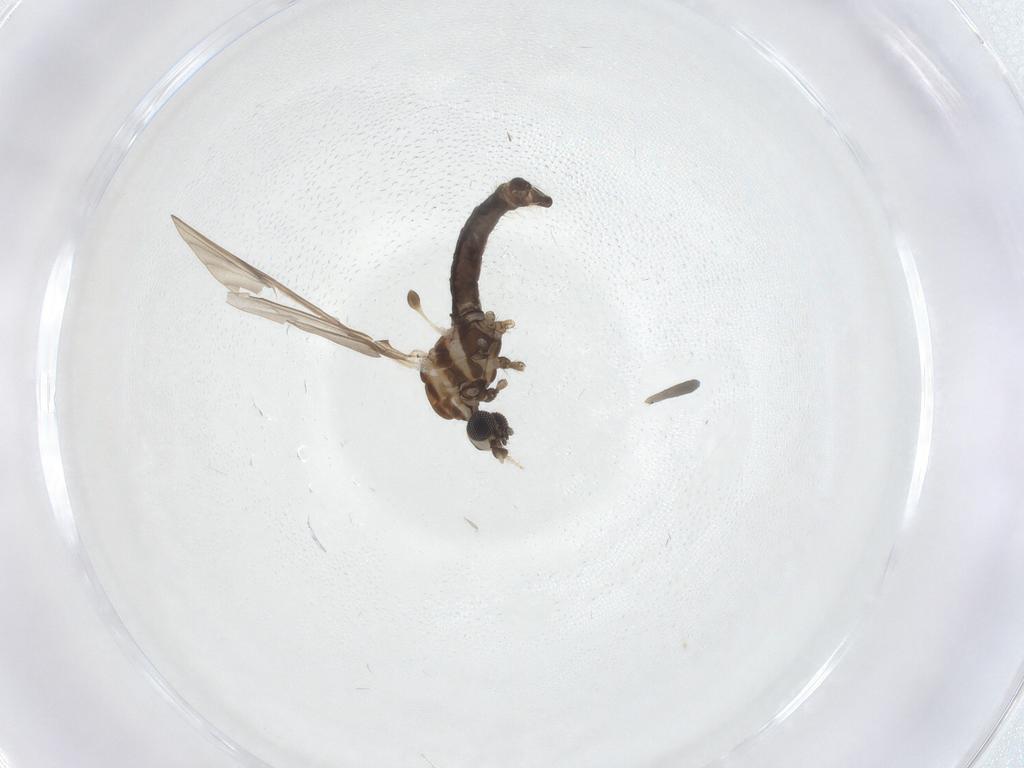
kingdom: Animalia
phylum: Arthropoda
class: Insecta
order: Diptera
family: Limoniidae
